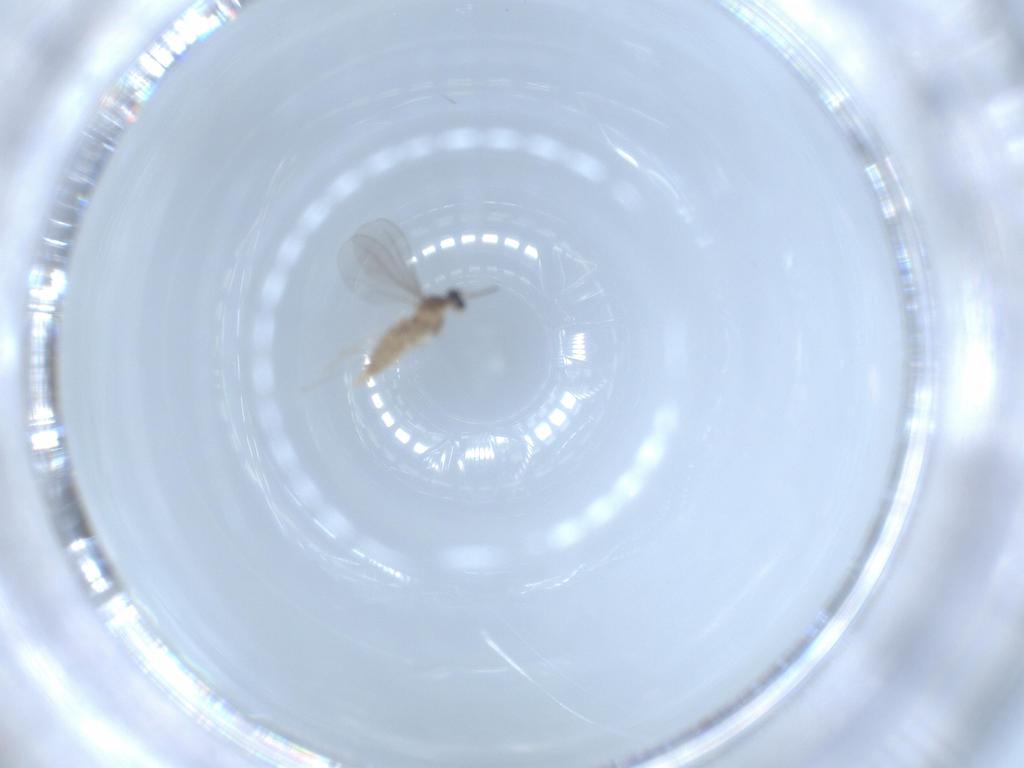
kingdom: Animalia
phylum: Arthropoda
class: Insecta
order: Diptera
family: Cecidomyiidae
